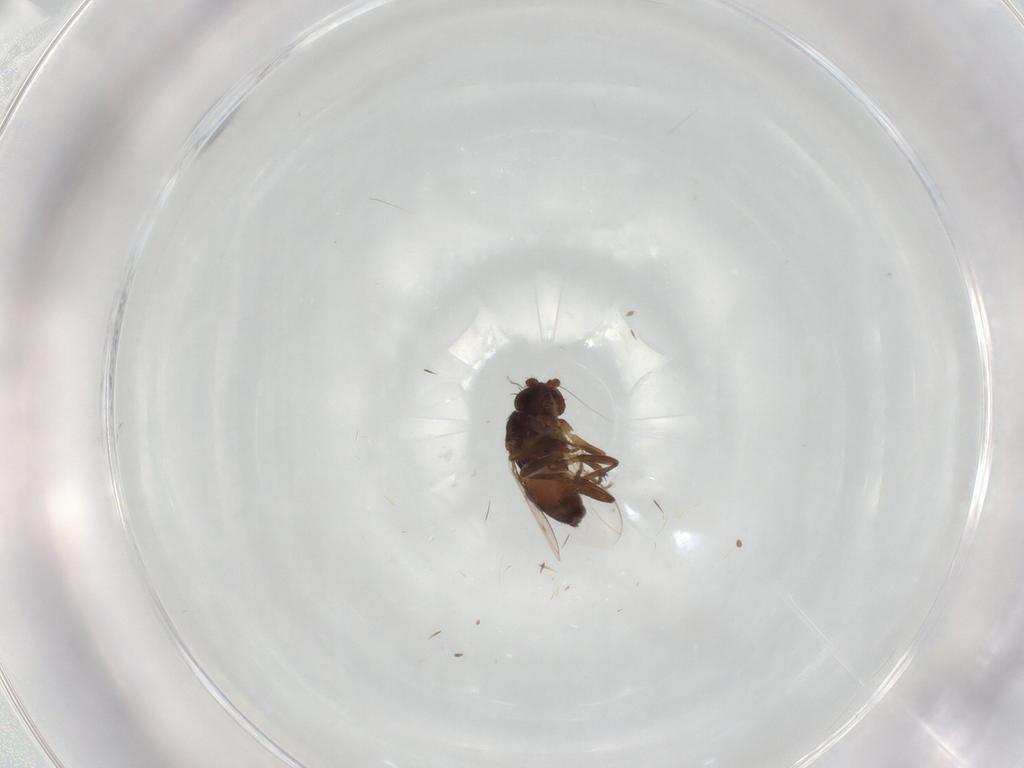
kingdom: Animalia
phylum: Arthropoda
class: Insecta
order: Diptera
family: Sphaeroceridae
